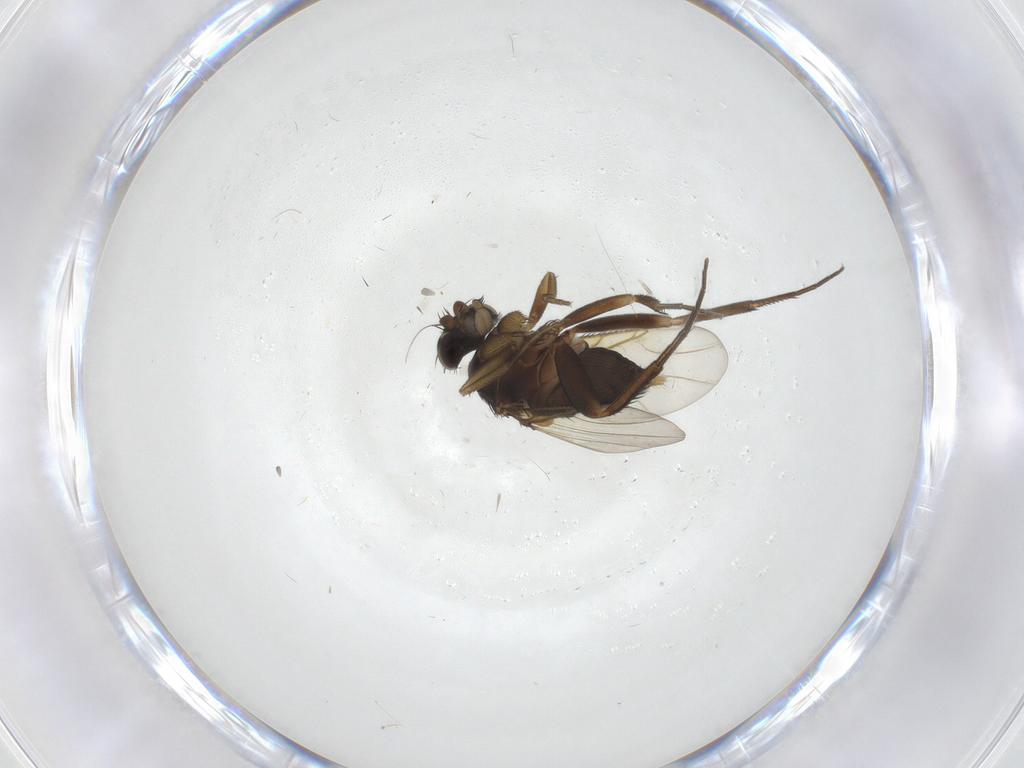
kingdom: Animalia
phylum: Arthropoda
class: Insecta
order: Diptera
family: Phoridae
